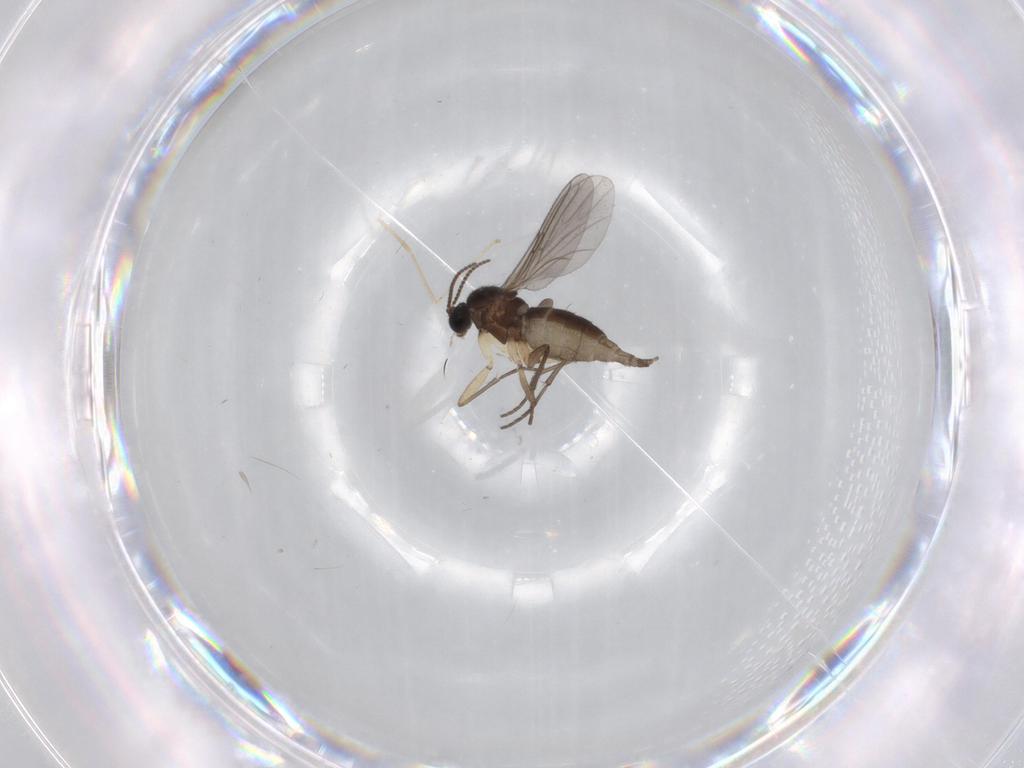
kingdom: Animalia
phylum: Arthropoda
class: Insecta
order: Diptera
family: Sciaridae
